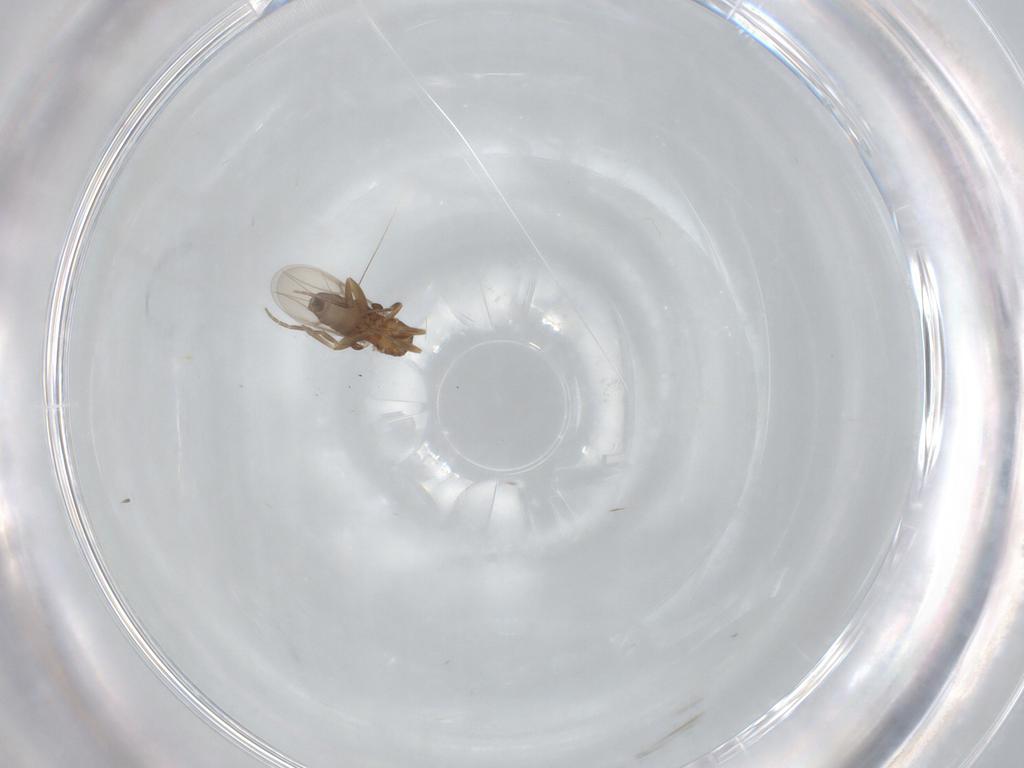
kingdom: Animalia
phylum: Arthropoda
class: Insecta
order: Diptera
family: Phoridae
